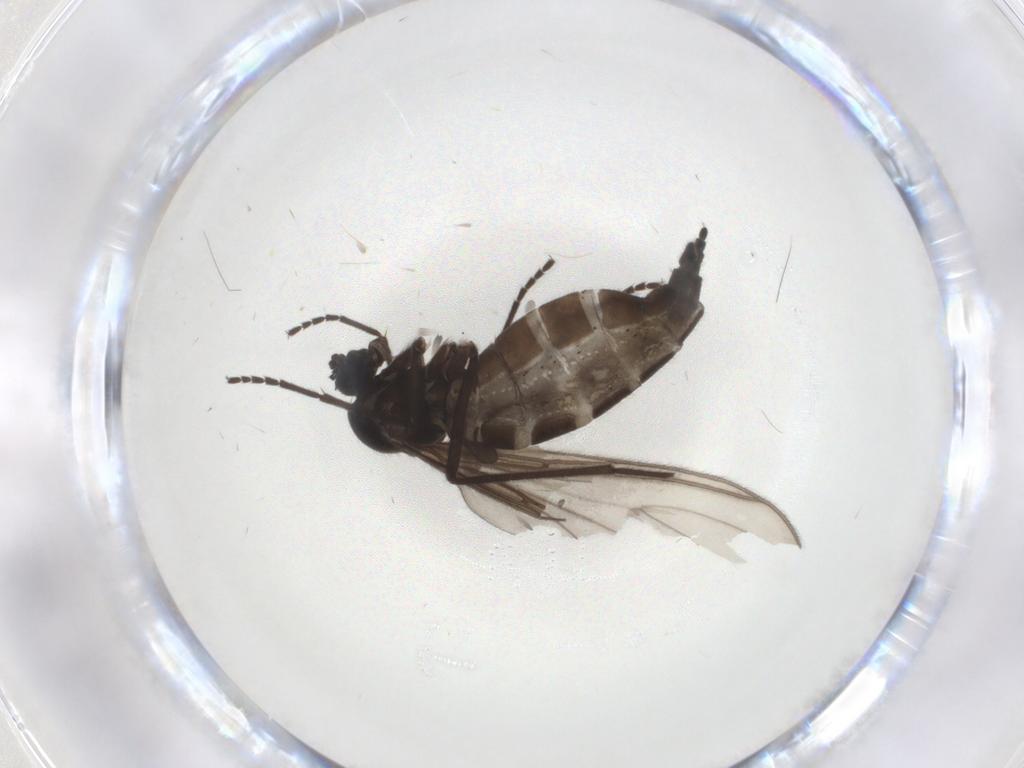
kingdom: Animalia
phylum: Arthropoda
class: Insecta
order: Diptera
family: Sciaridae
